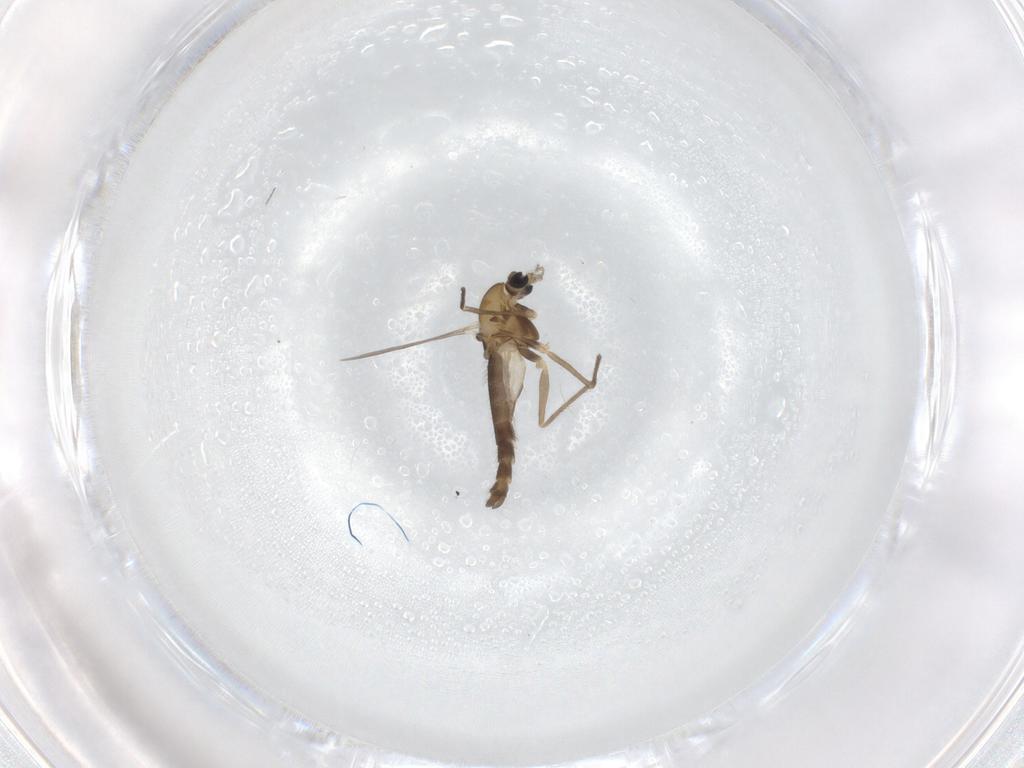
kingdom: Animalia
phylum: Arthropoda
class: Insecta
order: Diptera
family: Chironomidae
